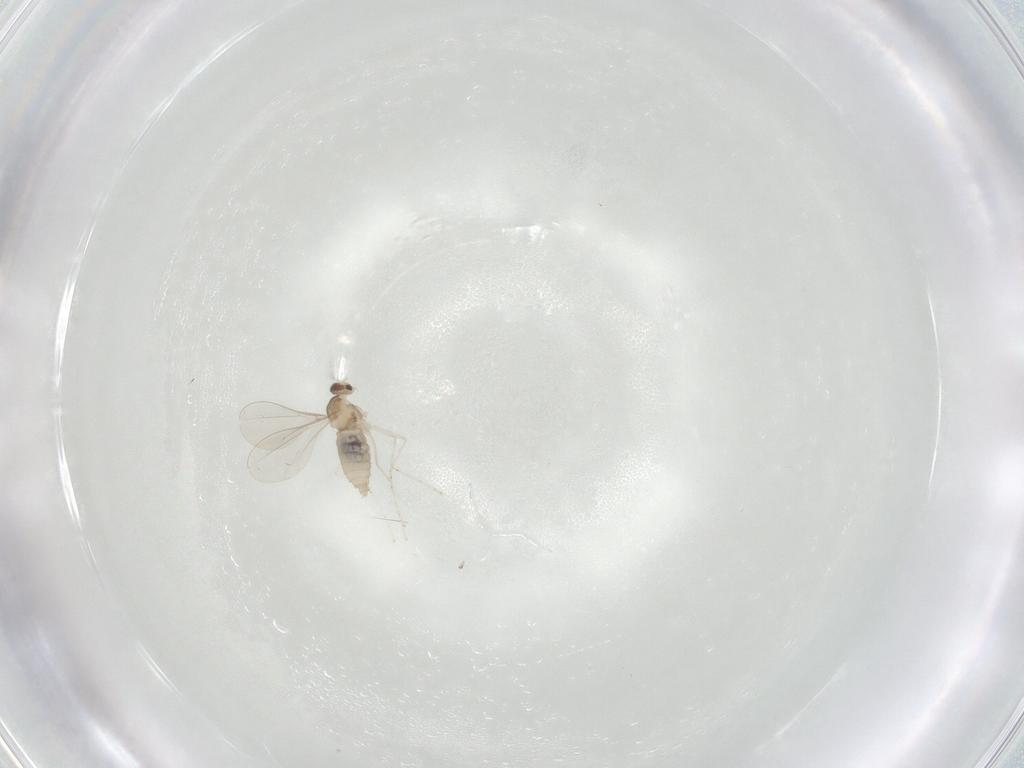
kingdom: Animalia
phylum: Arthropoda
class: Insecta
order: Diptera
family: Cecidomyiidae
